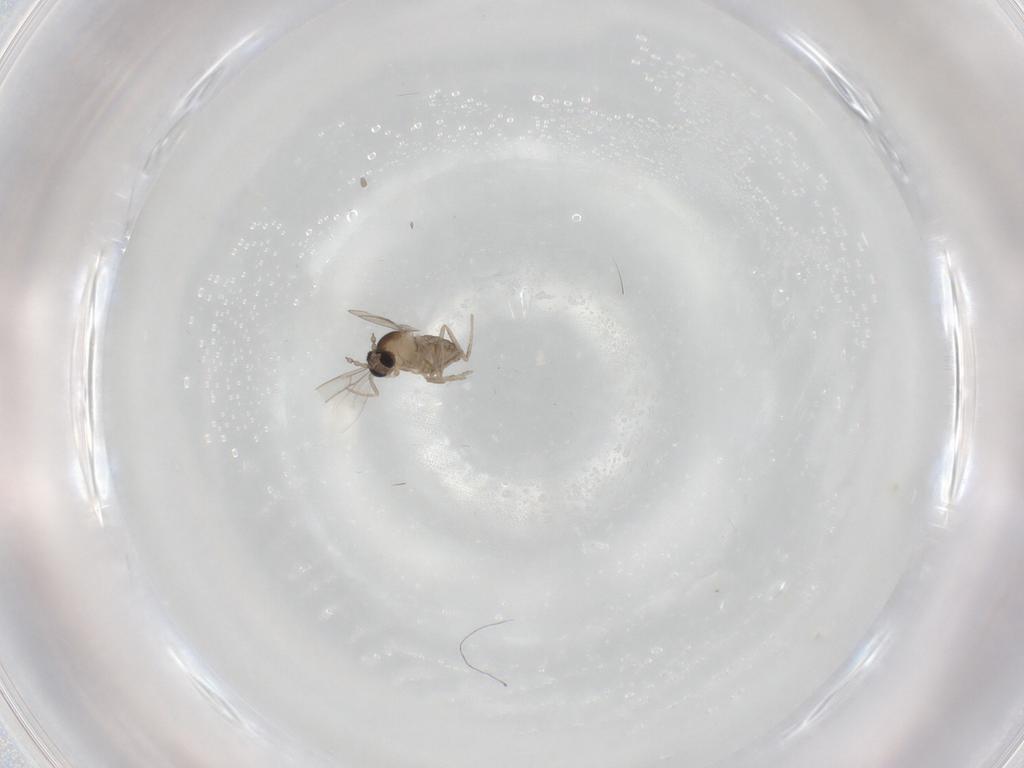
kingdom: Animalia
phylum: Arthropoda
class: Insecta
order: Diptera
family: Cecidomyiidae
